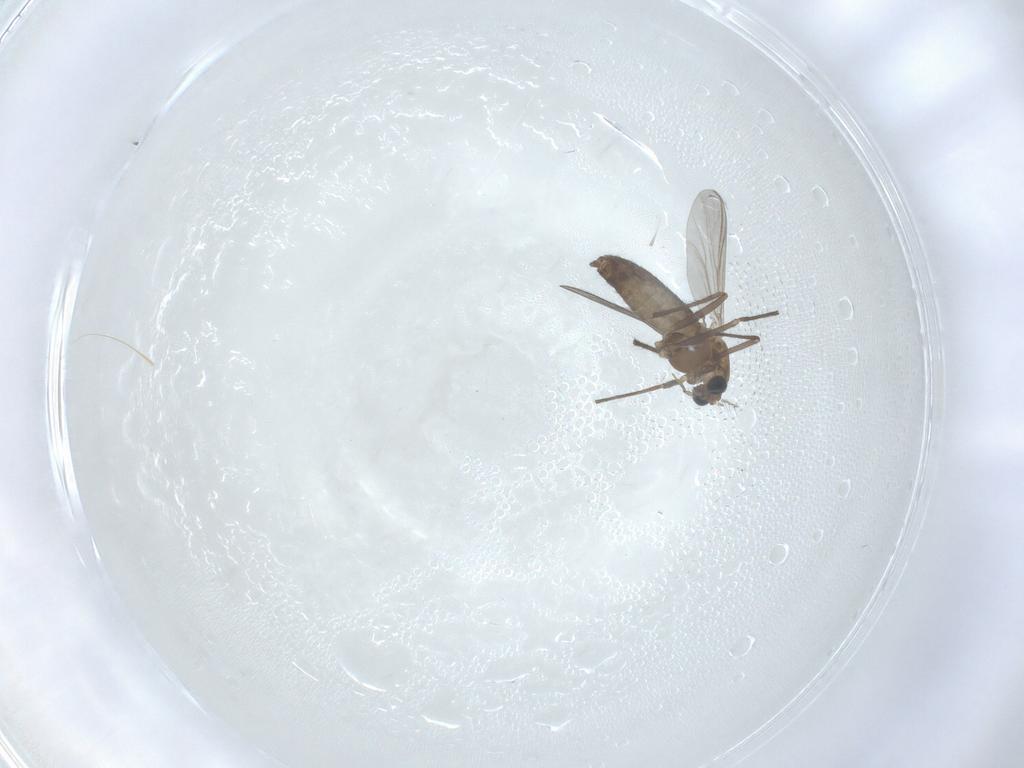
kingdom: Animalia
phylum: Arthropoda
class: Insecta
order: Diptera
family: Chironomidae
